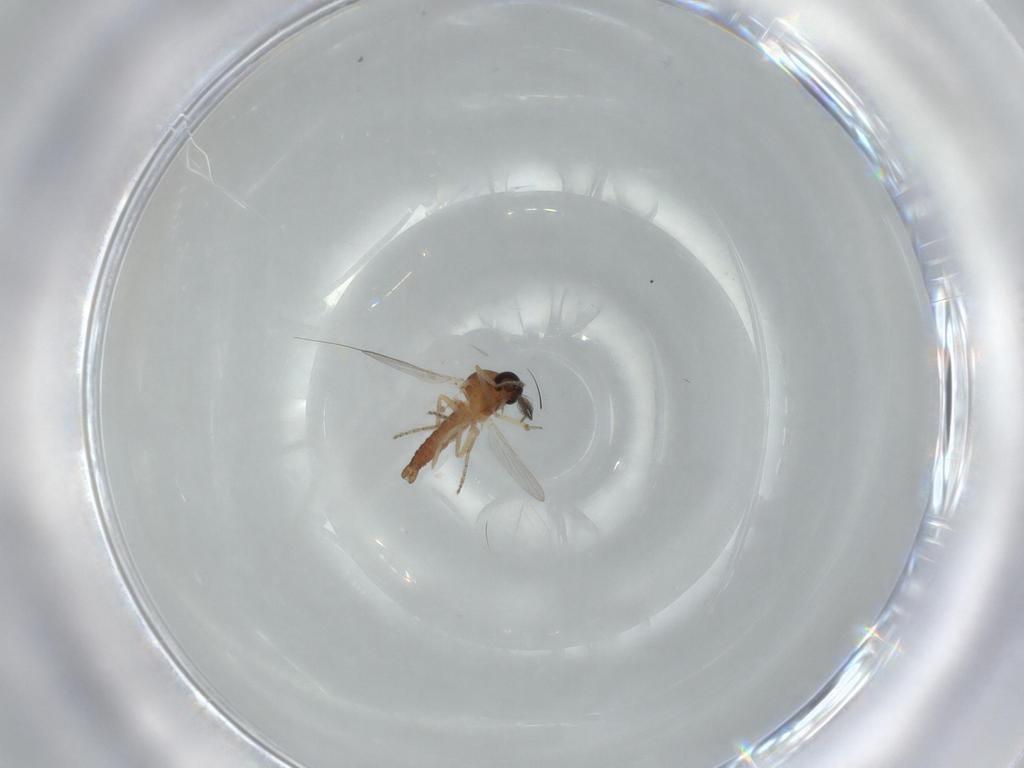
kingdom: Animalia
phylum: Arthropoda
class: Insecta
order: Diptera
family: Ceratopogonidae
